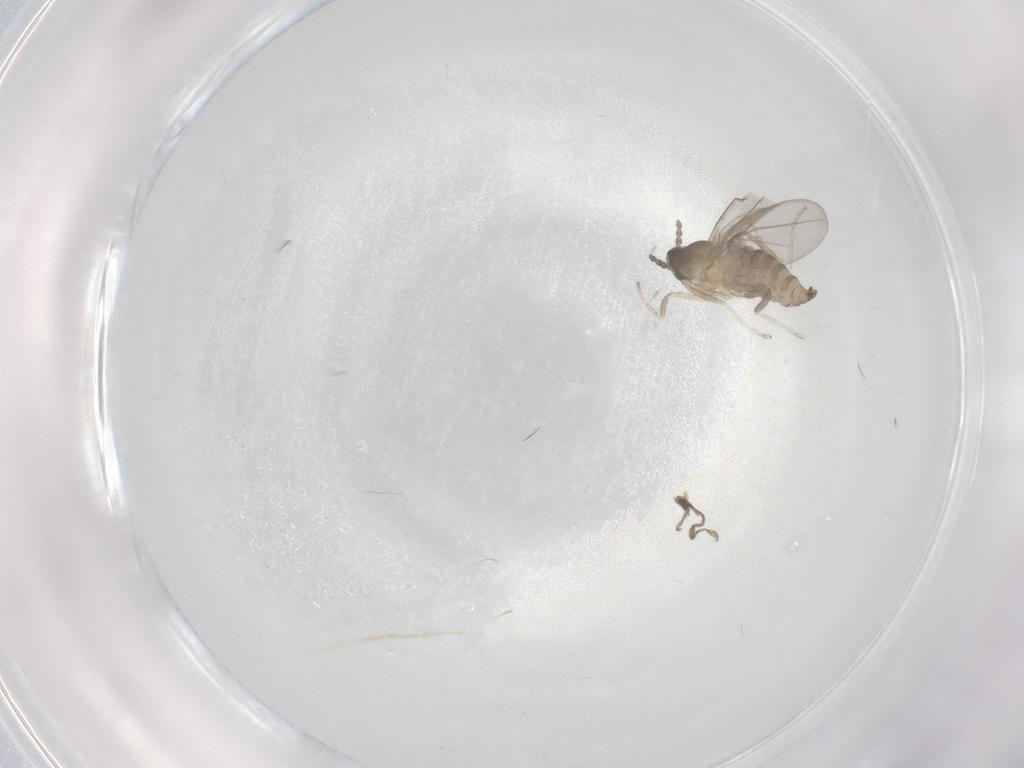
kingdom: Animalia
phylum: Arthropoda
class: Insecta
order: Diptera
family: Cecidomyiidae
